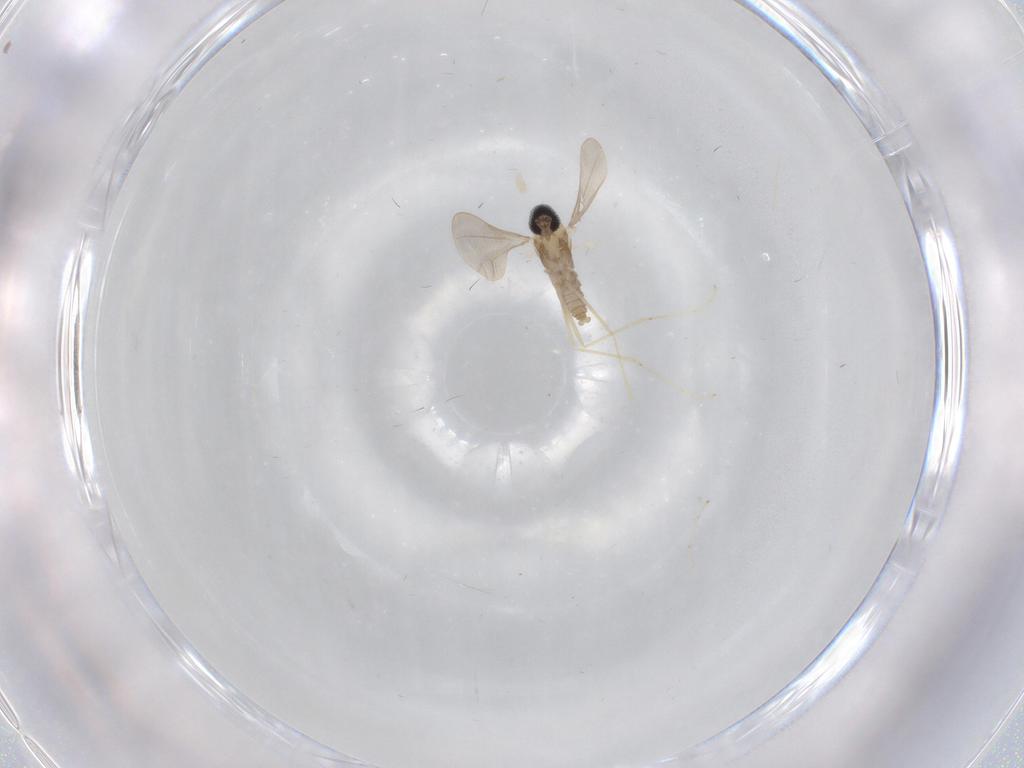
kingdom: Animalia
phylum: Arthropoda
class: Insecta
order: Diptera
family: Cecidomyiidae
